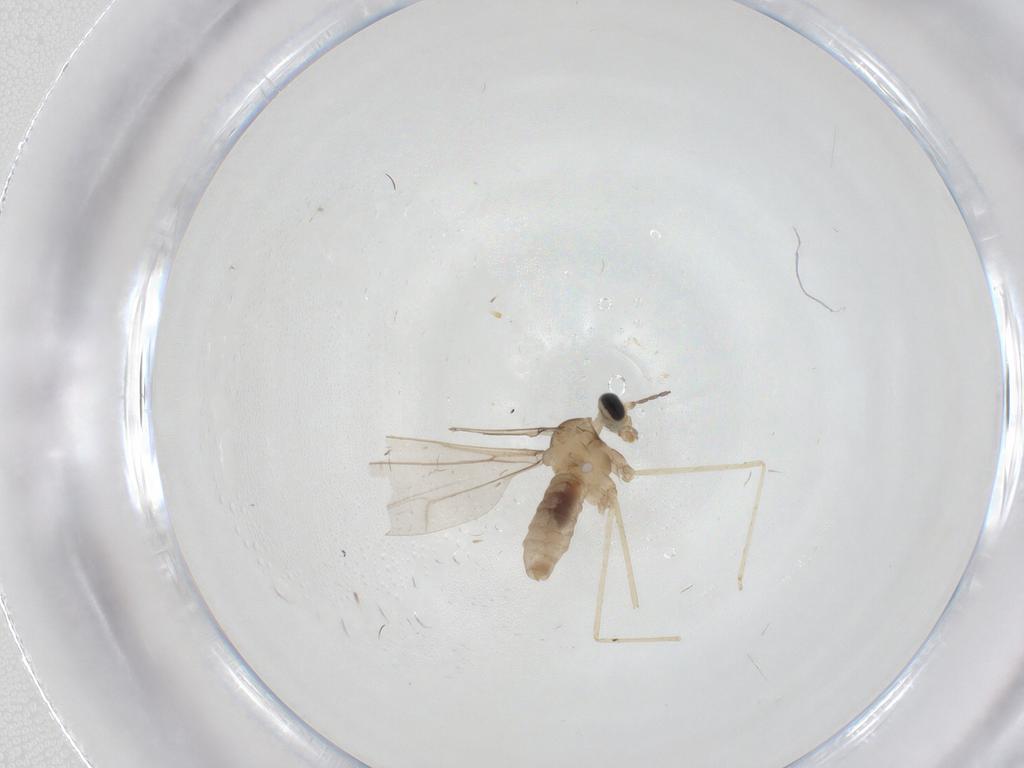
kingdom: Animalia
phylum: Arthropoda
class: Insecta
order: Diptera
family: Cecidomyiidae
